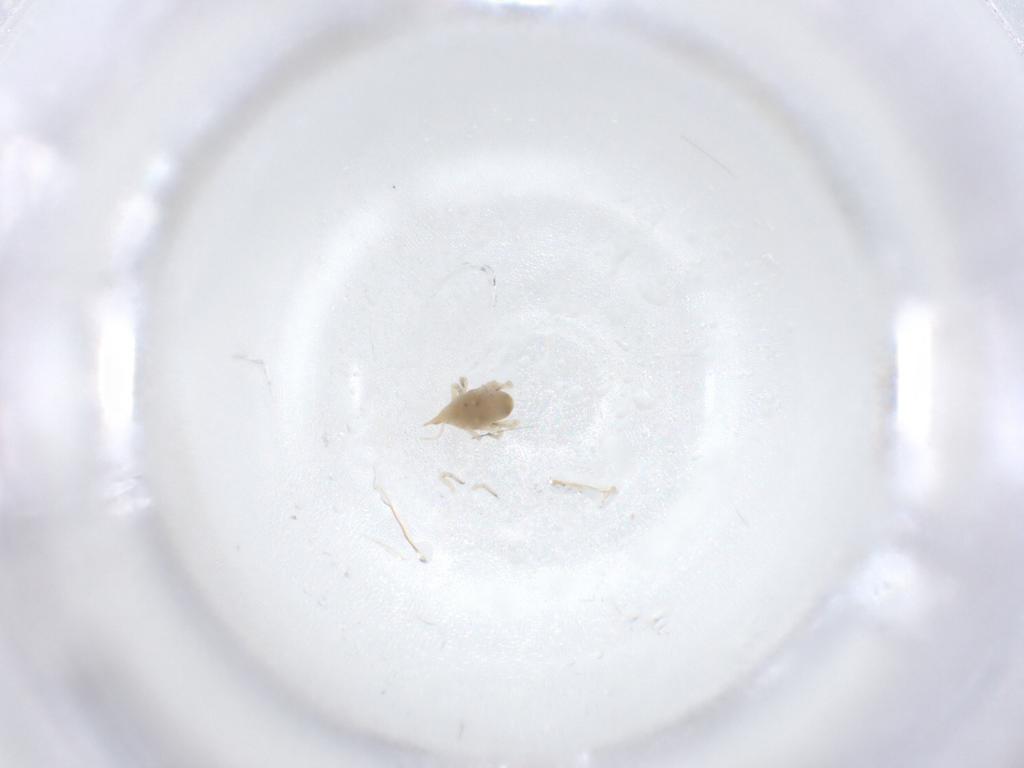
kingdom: Animalia
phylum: Arthropoda
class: Insecta
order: Diptera
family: Psychodidae
